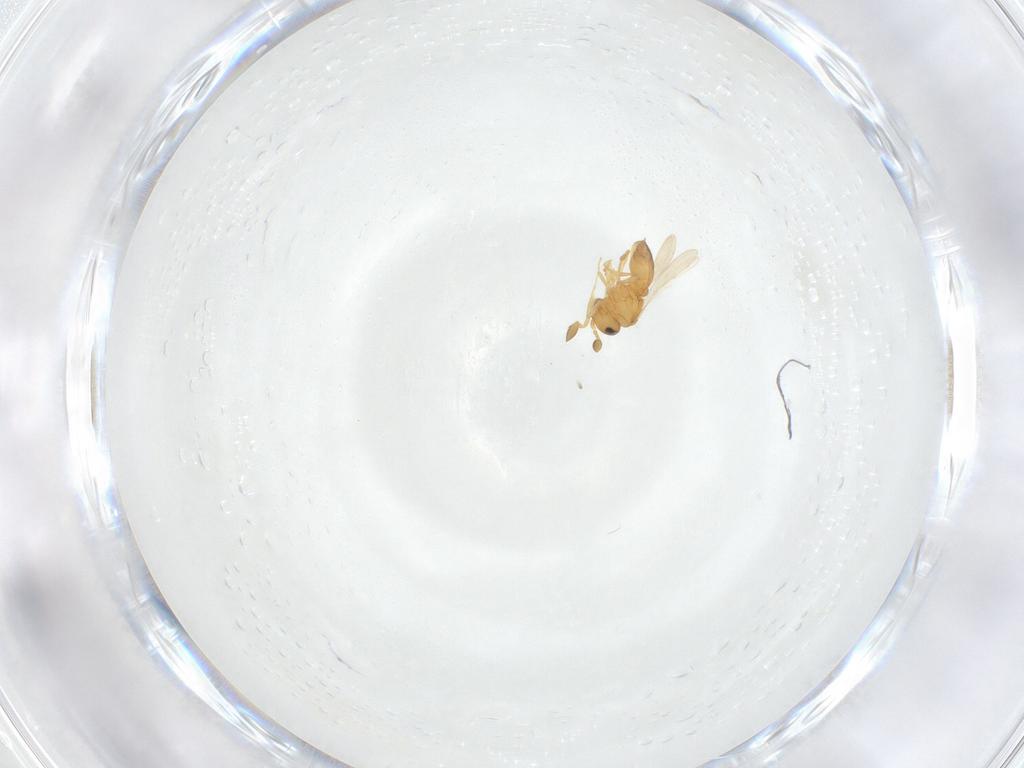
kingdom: Animalia
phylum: Arthropoda
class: Insecta
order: Hymenoptera
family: Scelionidae
